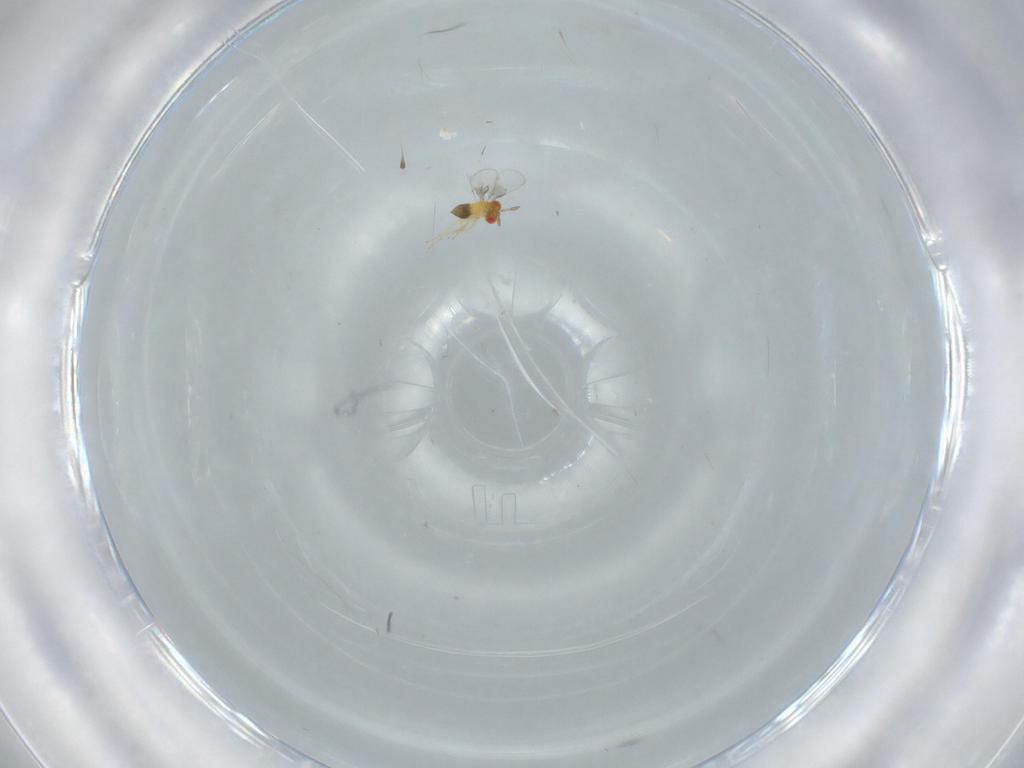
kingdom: Animalia
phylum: Arthropoda
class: Insecta
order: Hymenoptera
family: Trichogrammatidae
